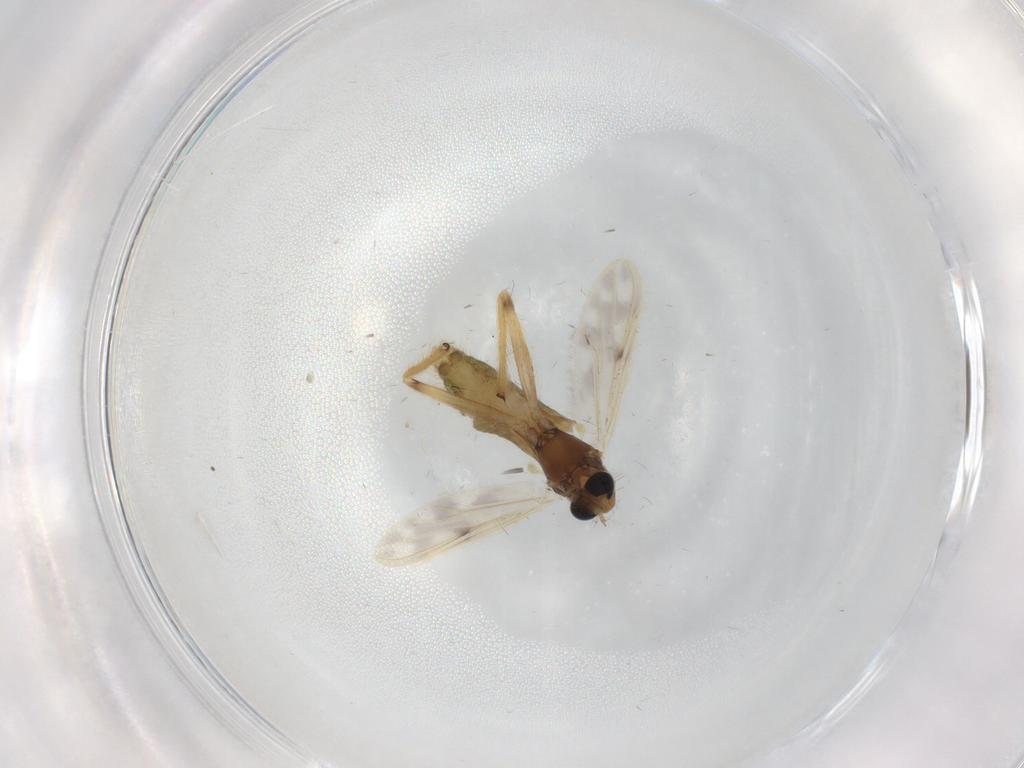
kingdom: Animalia
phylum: Arthropoda
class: Insecta
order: Diptera
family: Chironomidae
